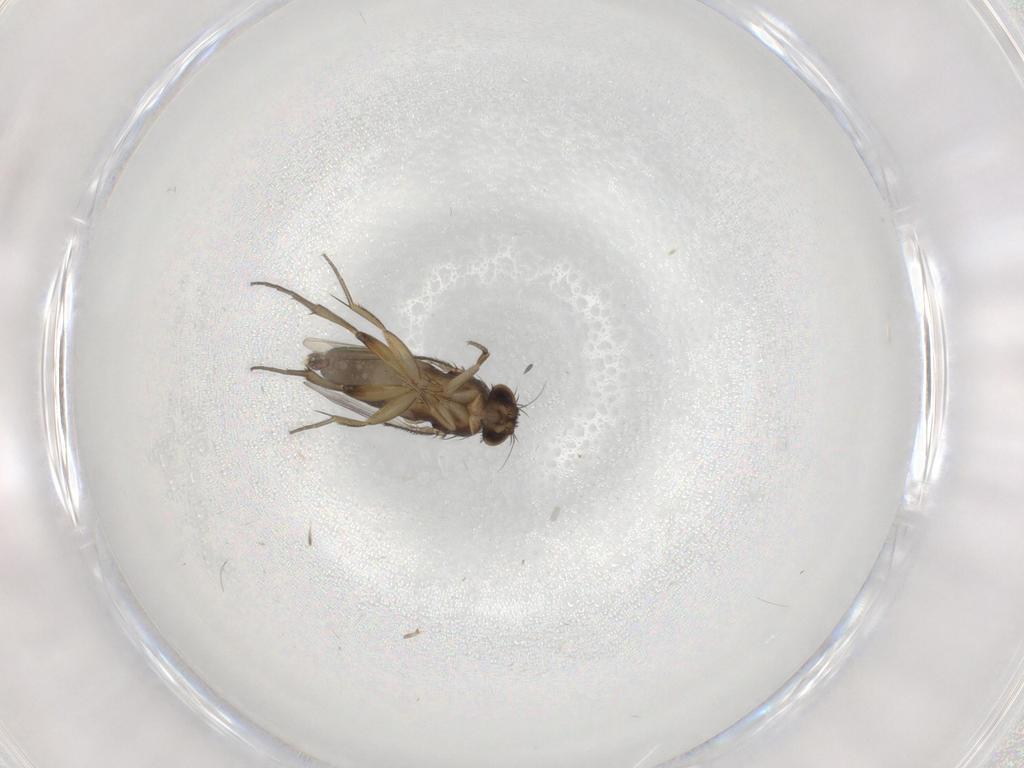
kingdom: Animalia
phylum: Arthropoda
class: Insecta
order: Diptera
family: Phoridae
